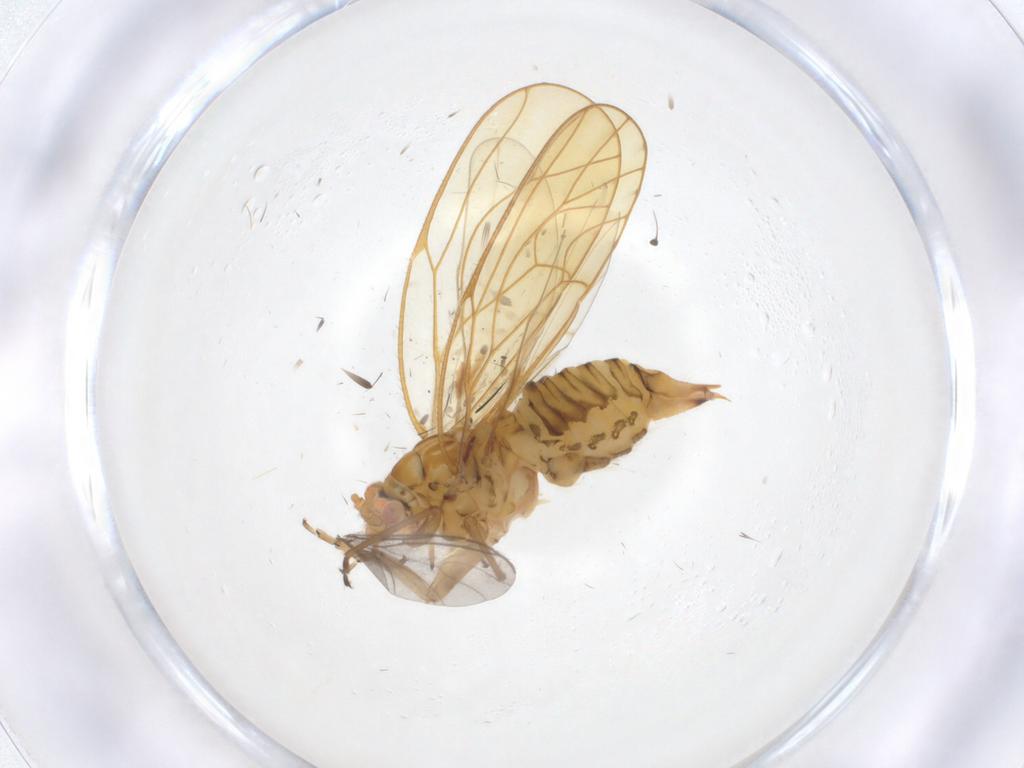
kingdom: Animalia
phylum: Arthropoda
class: Insecta
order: Hemiptera
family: Psyllidae
